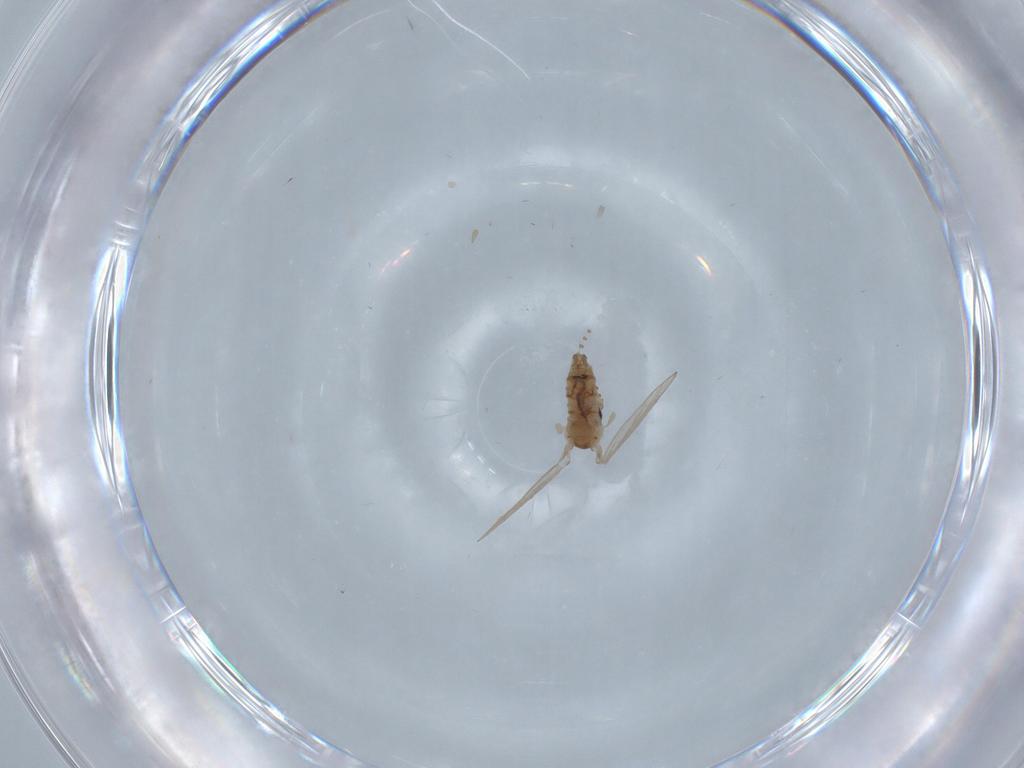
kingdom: Animalia
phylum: Arthropoda
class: Insecta
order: Diptera
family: Psychodidae
